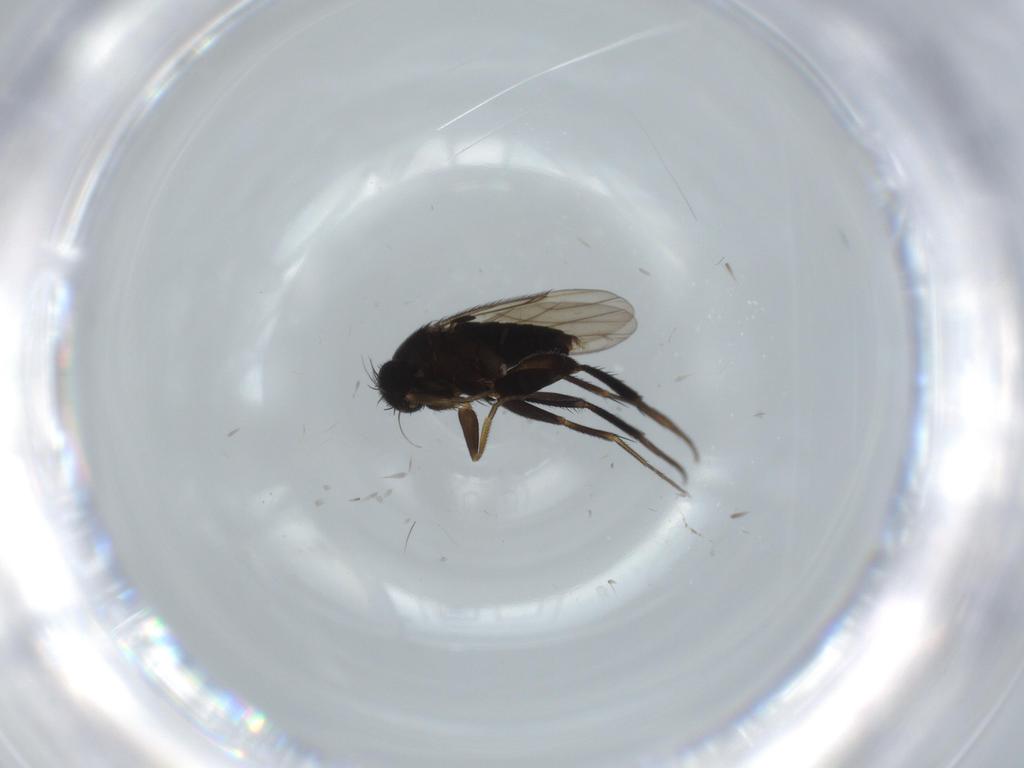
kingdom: Animalia
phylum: Arthropoda
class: Insecta
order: Diptera
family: Phoridae
